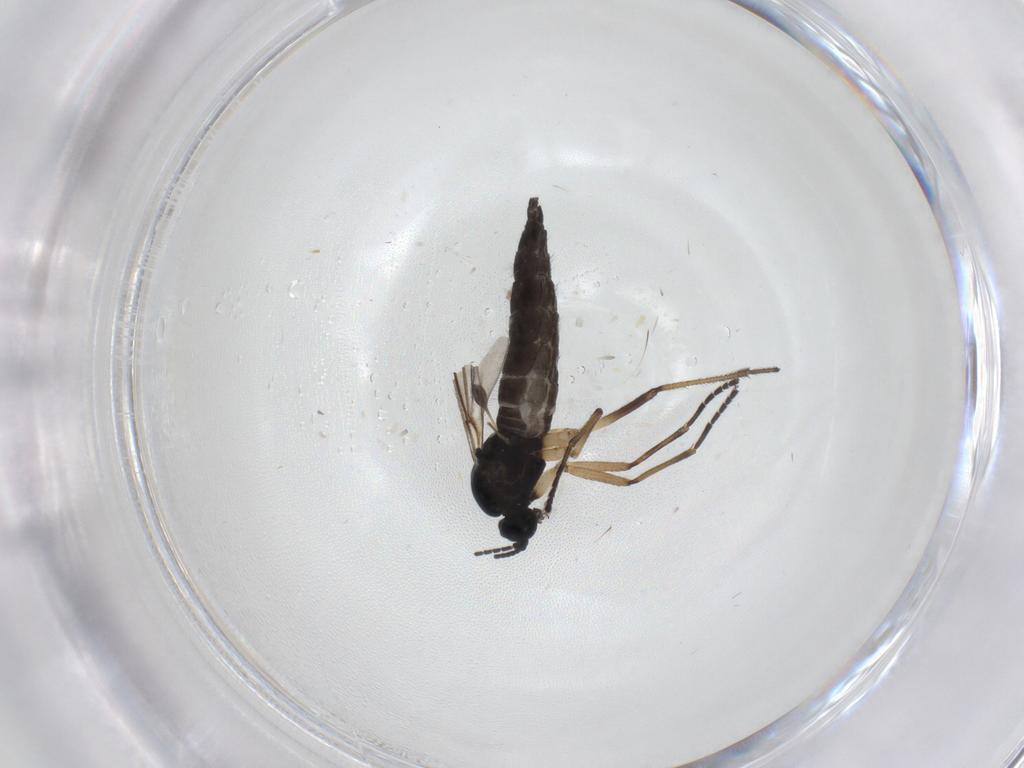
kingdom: Animalia
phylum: Arthropoda
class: Insecta
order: Diptera
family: Sciaridae
